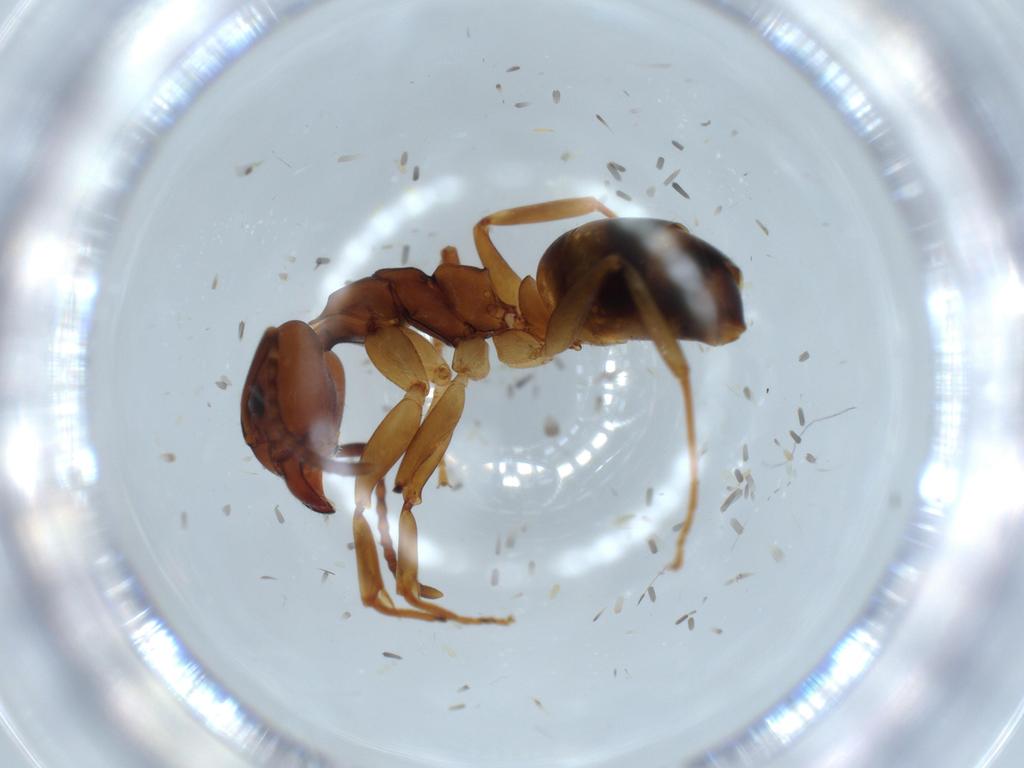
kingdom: Animalia
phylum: Arthropoda
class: Insecta
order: Hymenoptera
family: Formicidae
